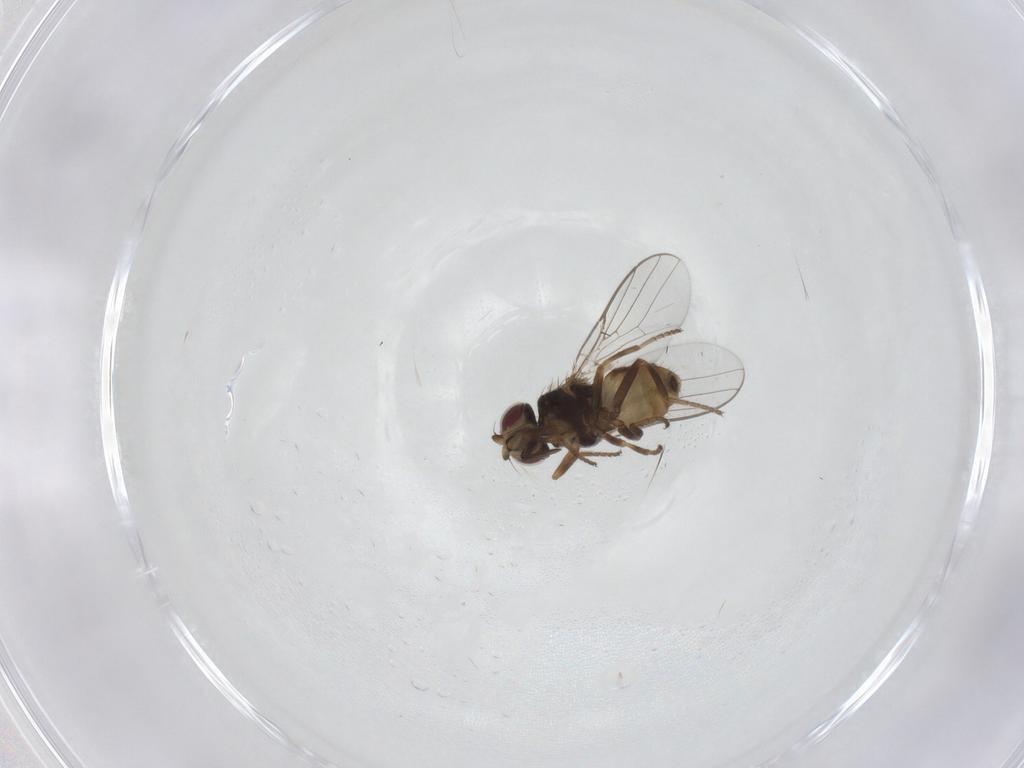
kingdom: Animalia
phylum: Arthropoda
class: Insecta
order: Diptera
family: Chloropidae
